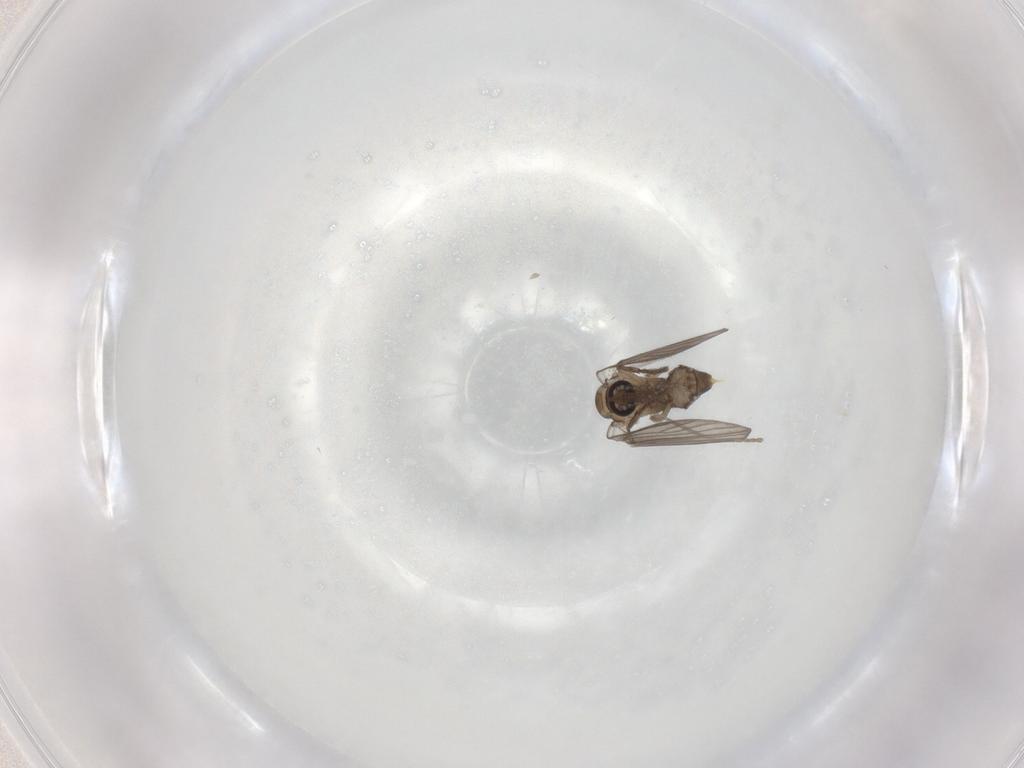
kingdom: Animalia
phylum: Arthropoda
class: Insecta
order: Diptera
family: Psychodidae
